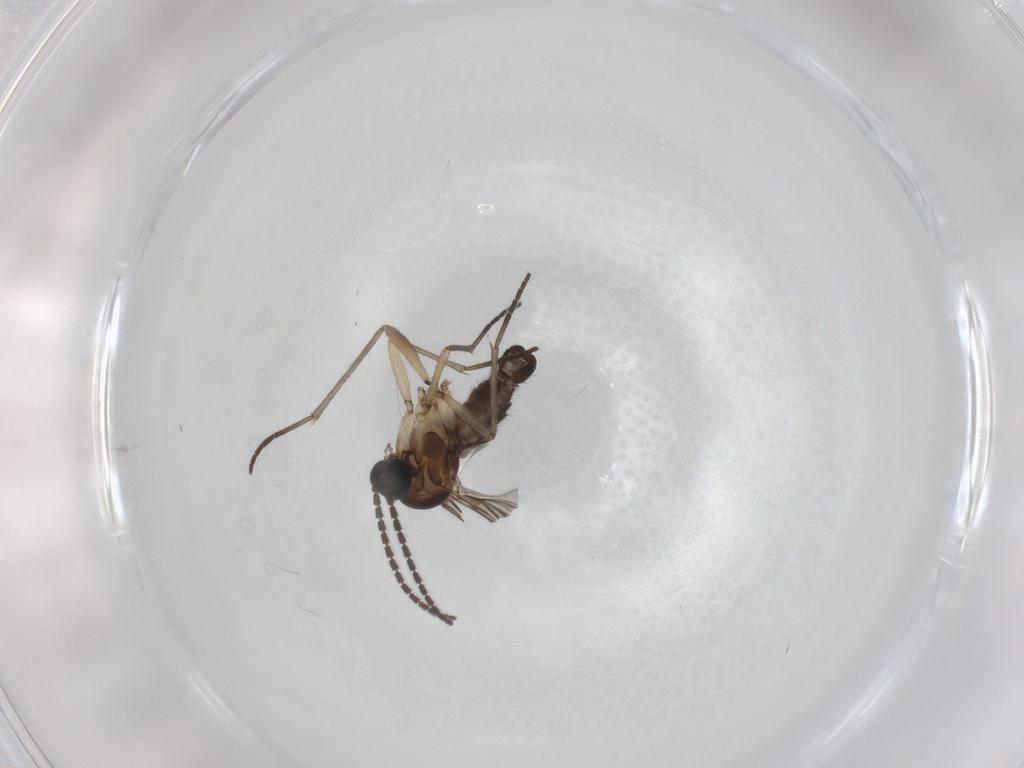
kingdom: Animalia
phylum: Arthropoda
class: Insecta
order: Diptera
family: Sciaridae
